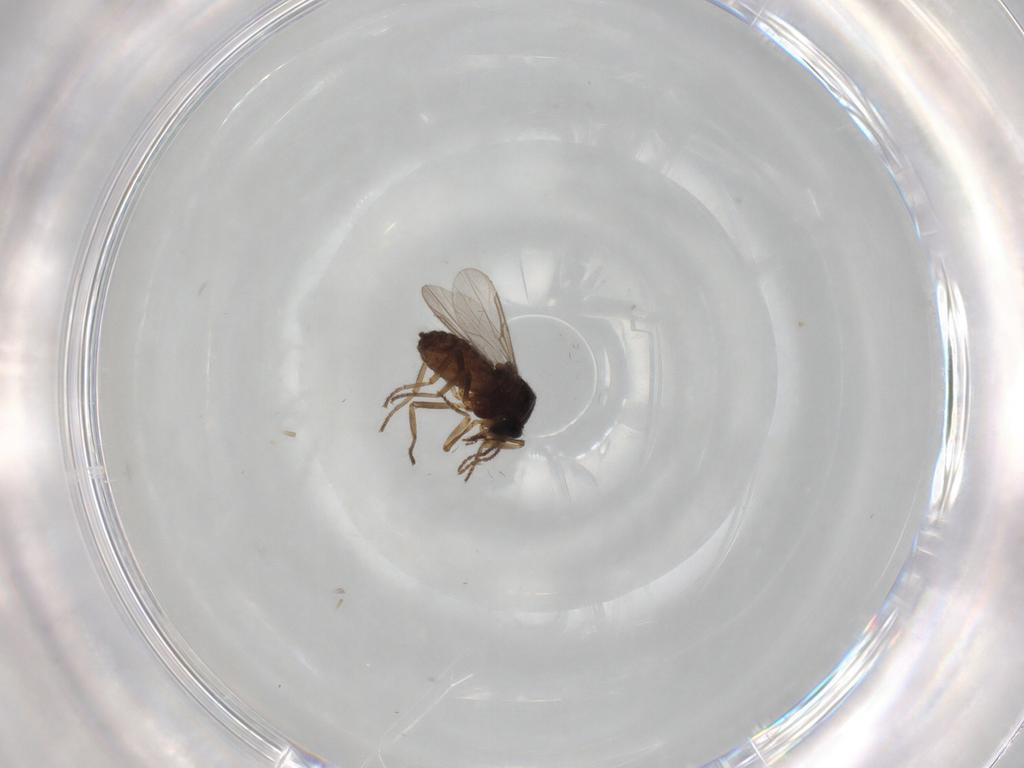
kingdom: Animalia
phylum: Arthropoda
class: Insecta
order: Diptera
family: Ceratopogonidae
